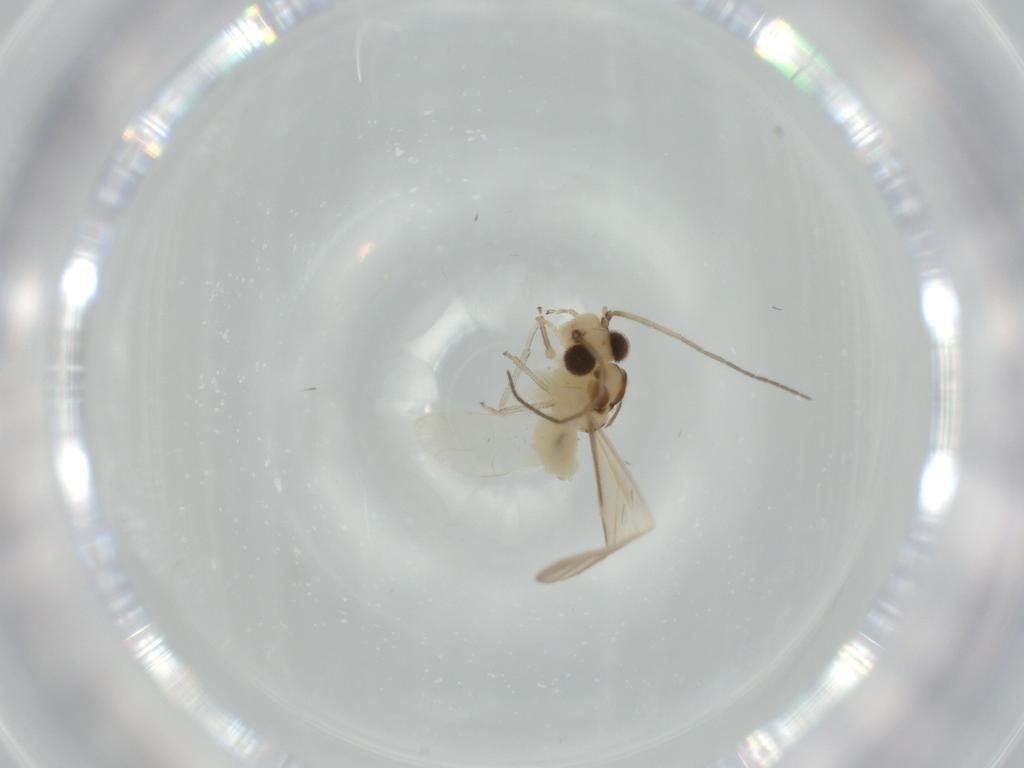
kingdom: Animalia
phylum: Arthropoda
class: Insecta
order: Psocodea
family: Caeciliusidae
